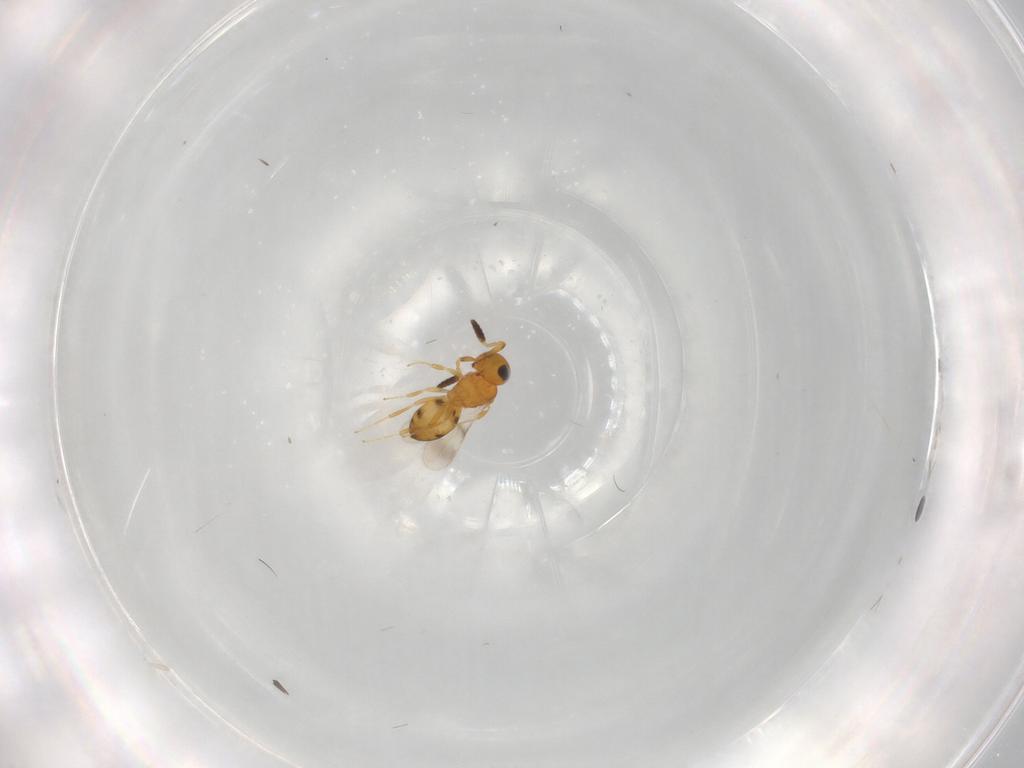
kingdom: Animalia
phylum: Arthropoda
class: Insecta
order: Hymenoptera
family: Scelionidae
